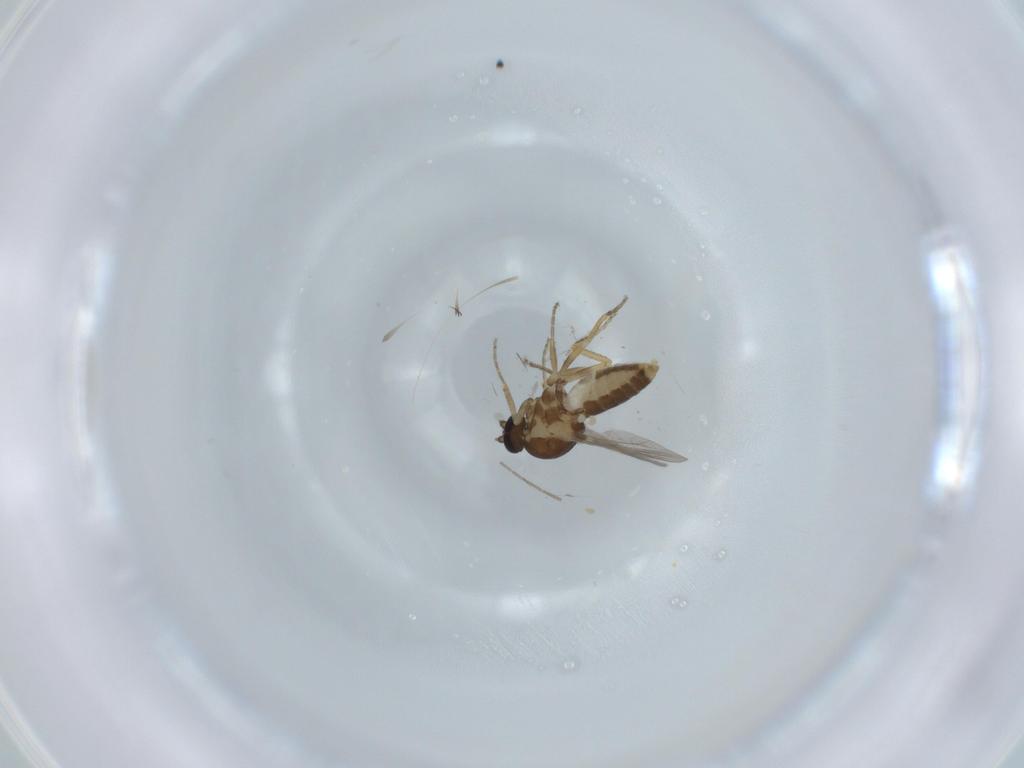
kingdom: Animalia
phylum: Arthropoda
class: Insecta
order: Diptera
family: Ceratopogonidae
